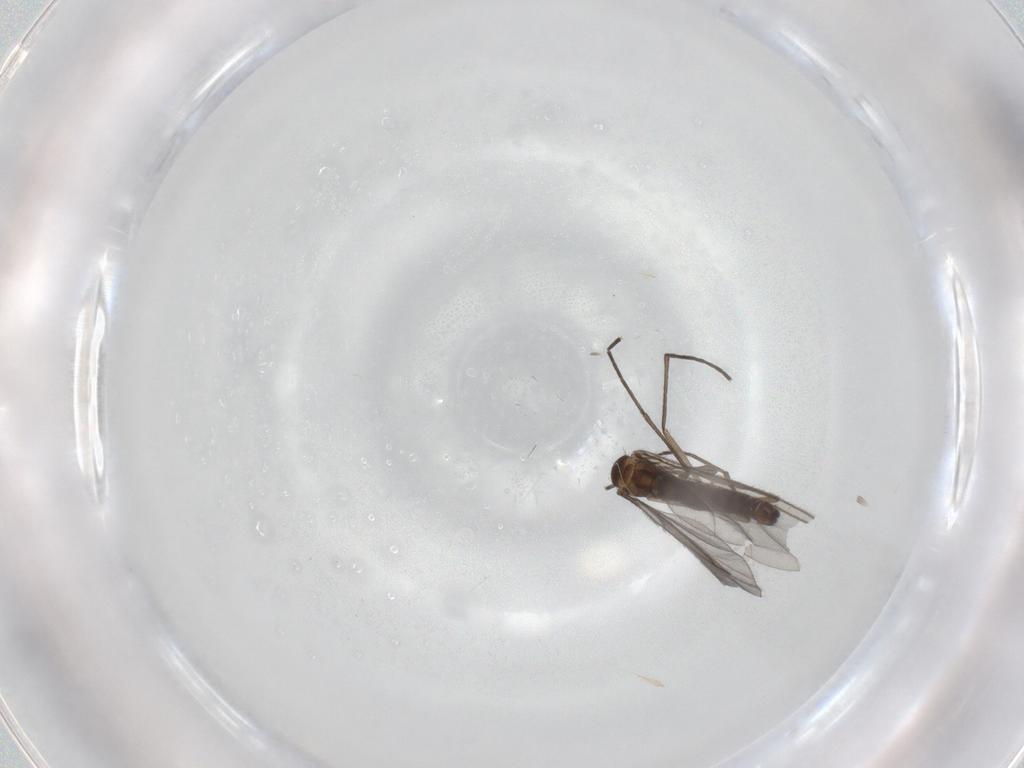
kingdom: Animalia
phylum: Arthropoda
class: Insecta
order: Diptera
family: Sciaridae
